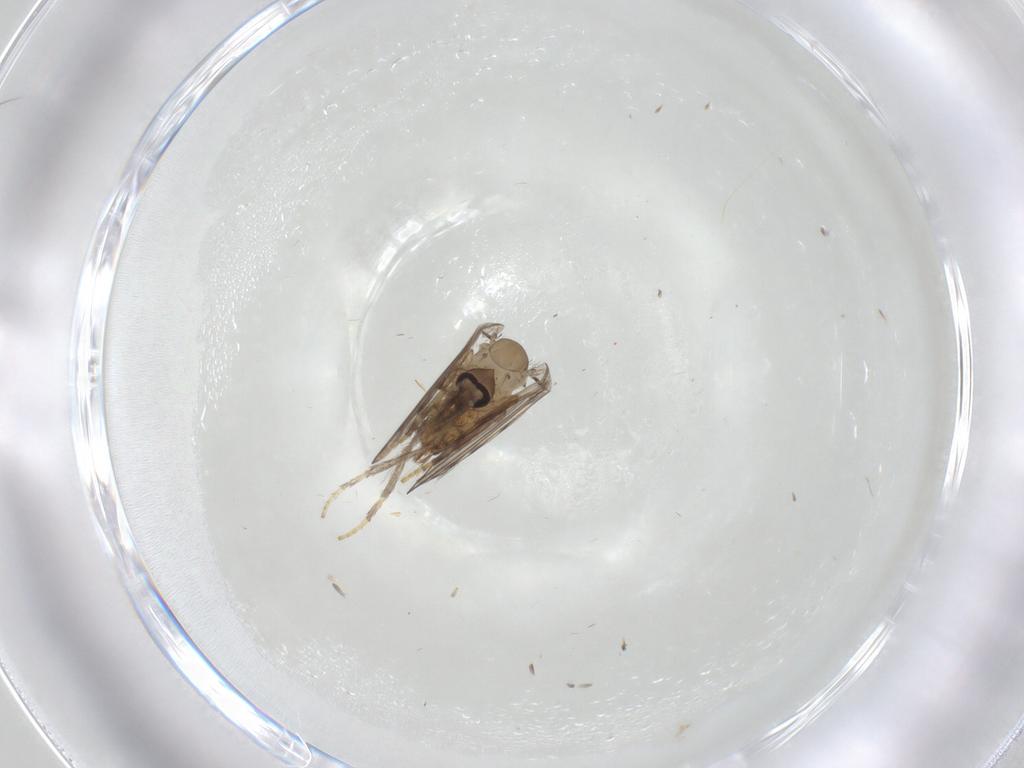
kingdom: Animalia
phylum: Arthropoda
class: Insecta
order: Diptera
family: Psychodidae
